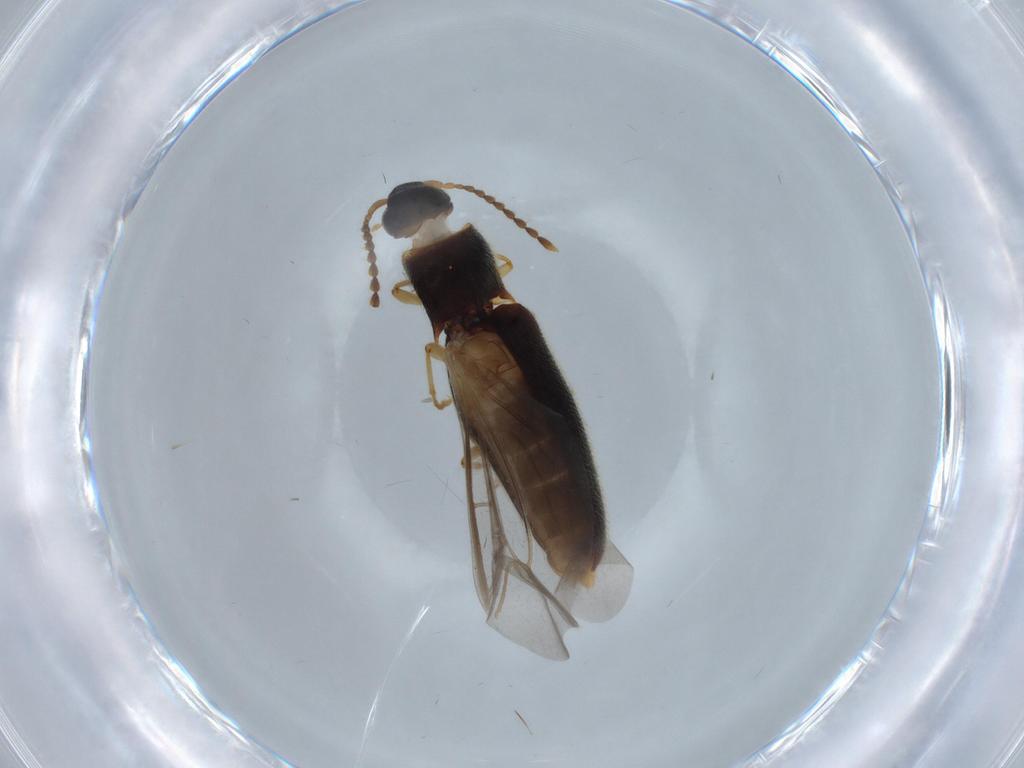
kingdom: Animalia
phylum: Arthropoda
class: Insecta
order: Coleoptera
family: Elateridae
